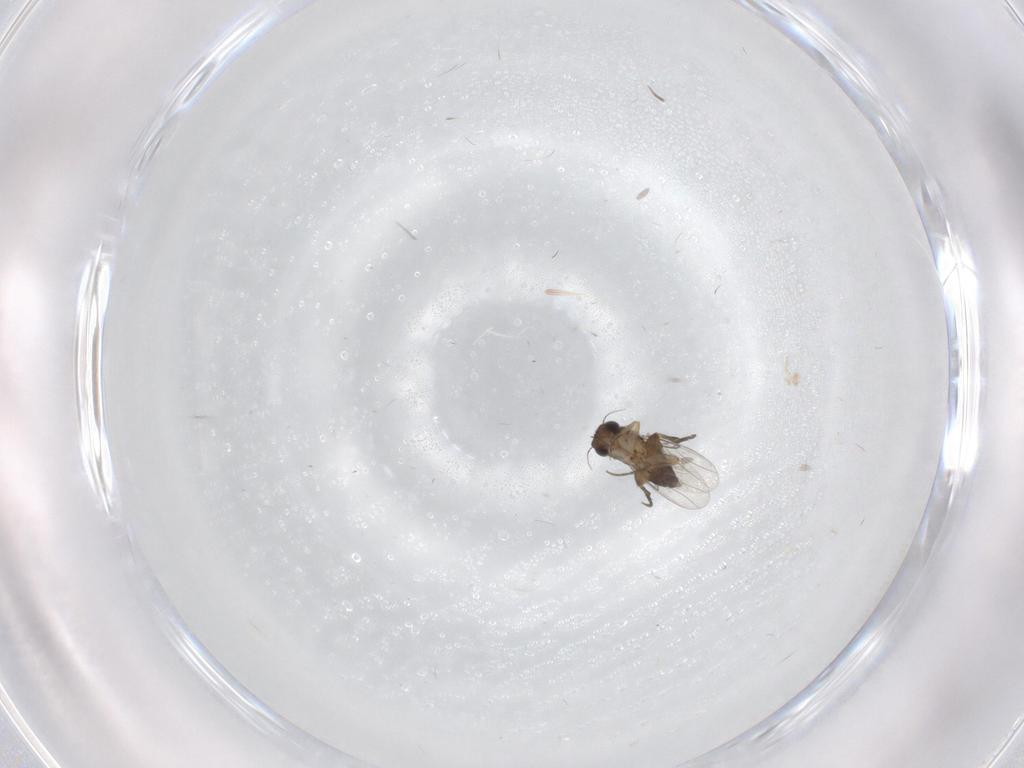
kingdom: Animalia
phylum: Arthropoda
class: Insecta
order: Diptera
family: Ceratopogonidae
